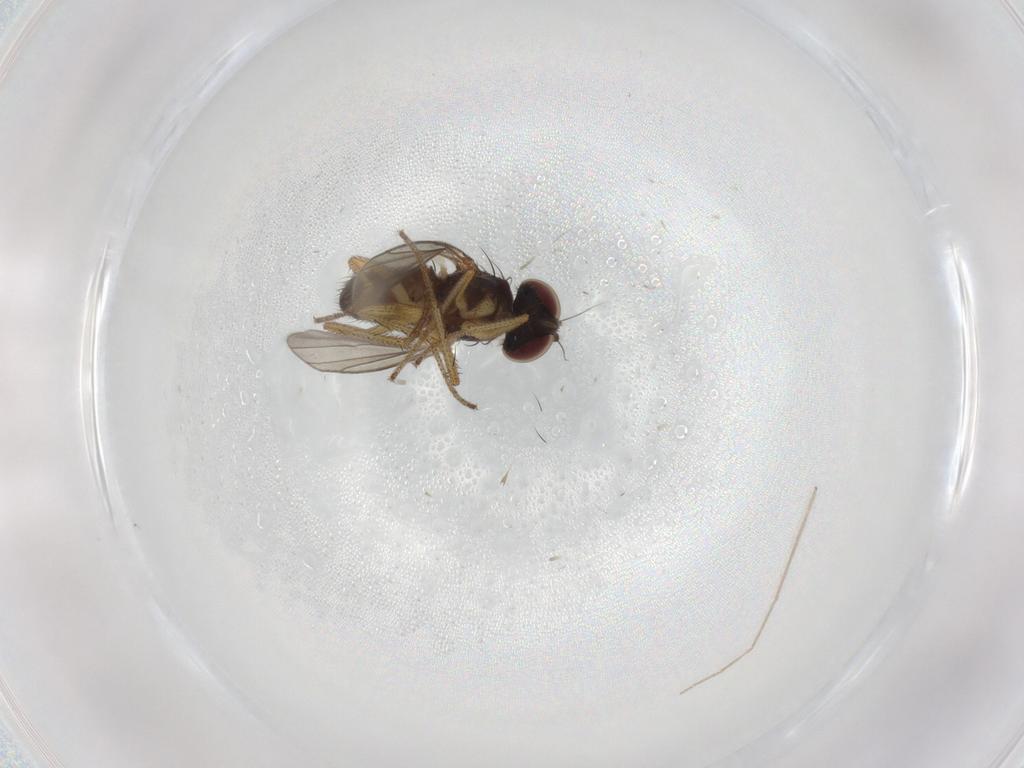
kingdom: Animalia
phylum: Arthropoda
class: Insecta
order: Diptera
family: Chironomidae
